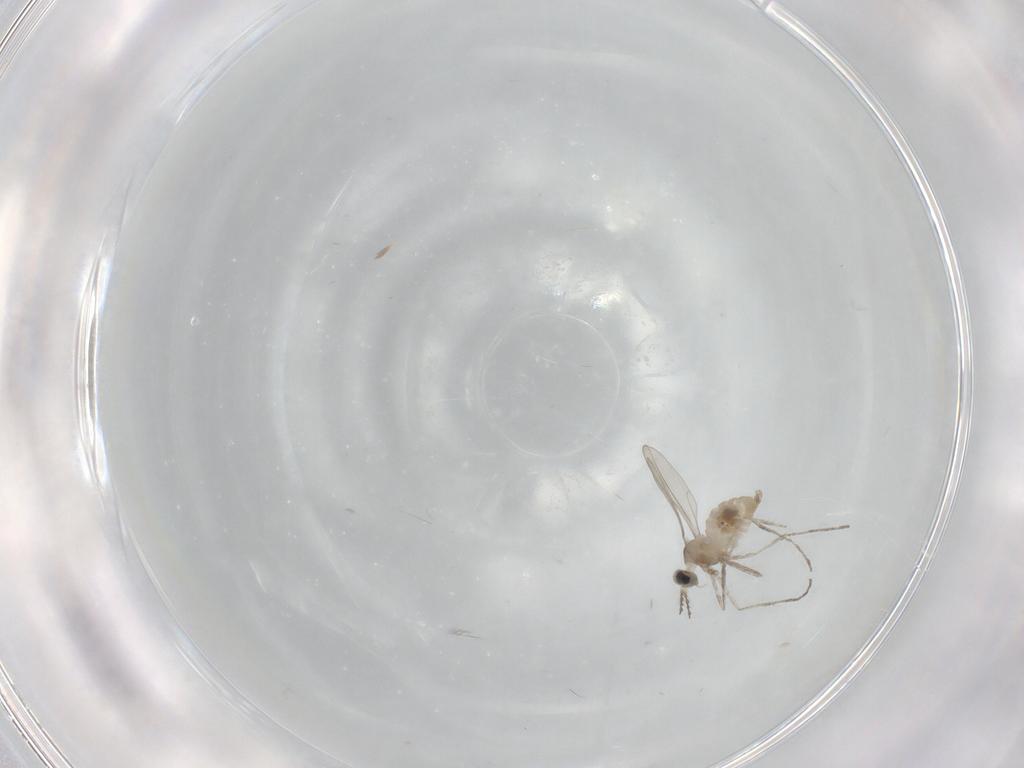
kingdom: Animalia
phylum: Arthropoda
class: Insecta
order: Diptera
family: Cecidomyiidae
